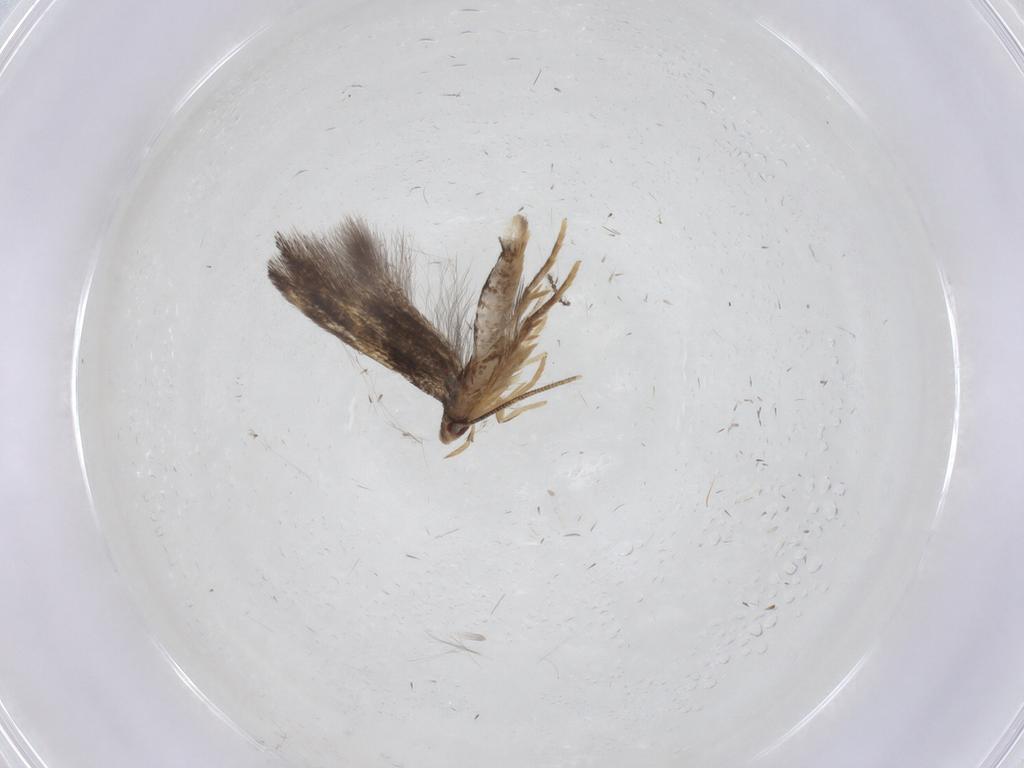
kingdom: Animalia
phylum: Arthropoda
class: Insecta
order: Lepidoptera
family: Gelechiidae
